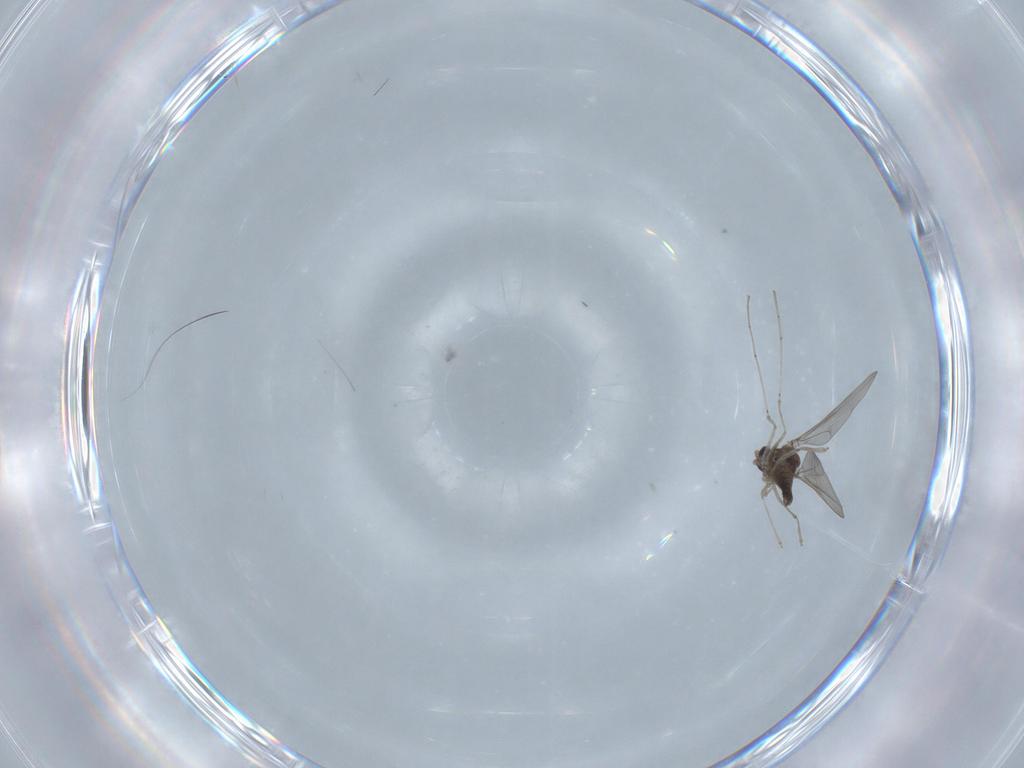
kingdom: Animalia
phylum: Arthropoda
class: Insecta
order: Diptera
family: Cecidomyiidae
